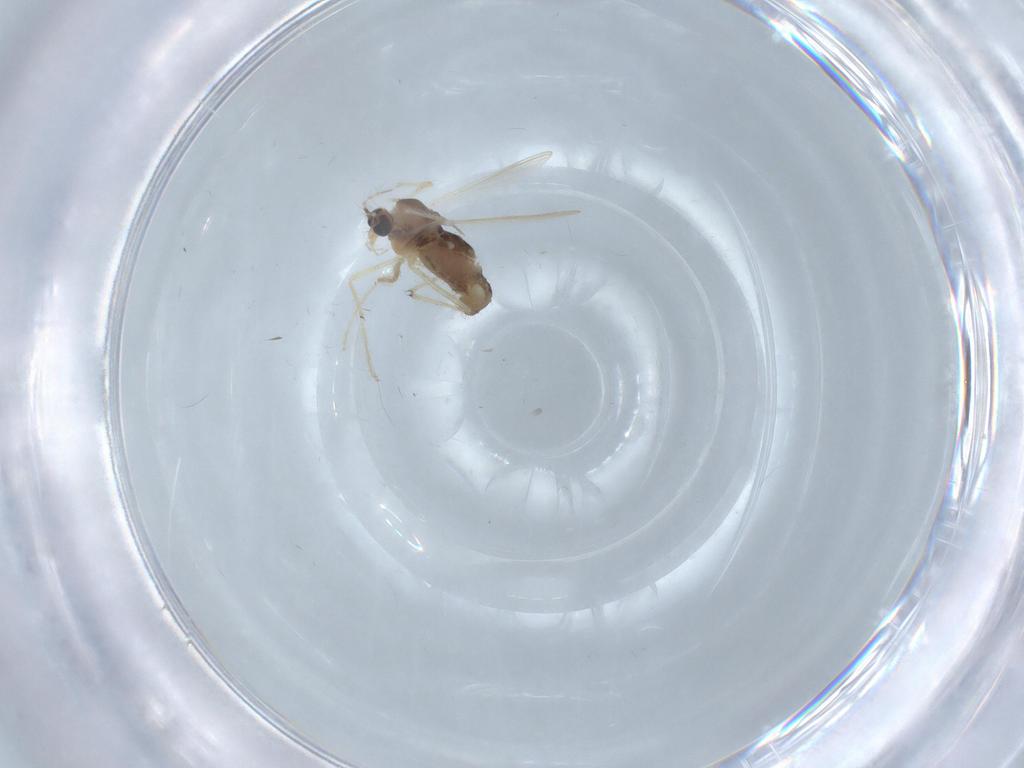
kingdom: Animalia
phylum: Arthropoda
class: Insecta
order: Diptera
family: Chironomidae
